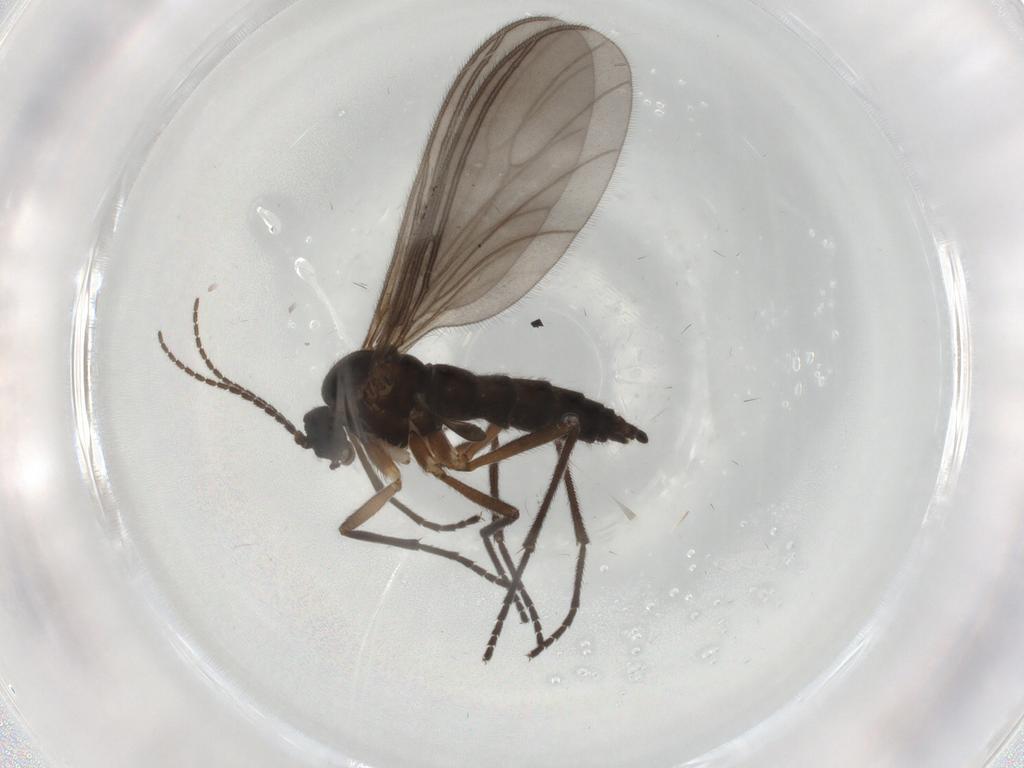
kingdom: Animalia
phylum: Arthropoda
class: Insecta
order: Diptera
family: Sciaridae
